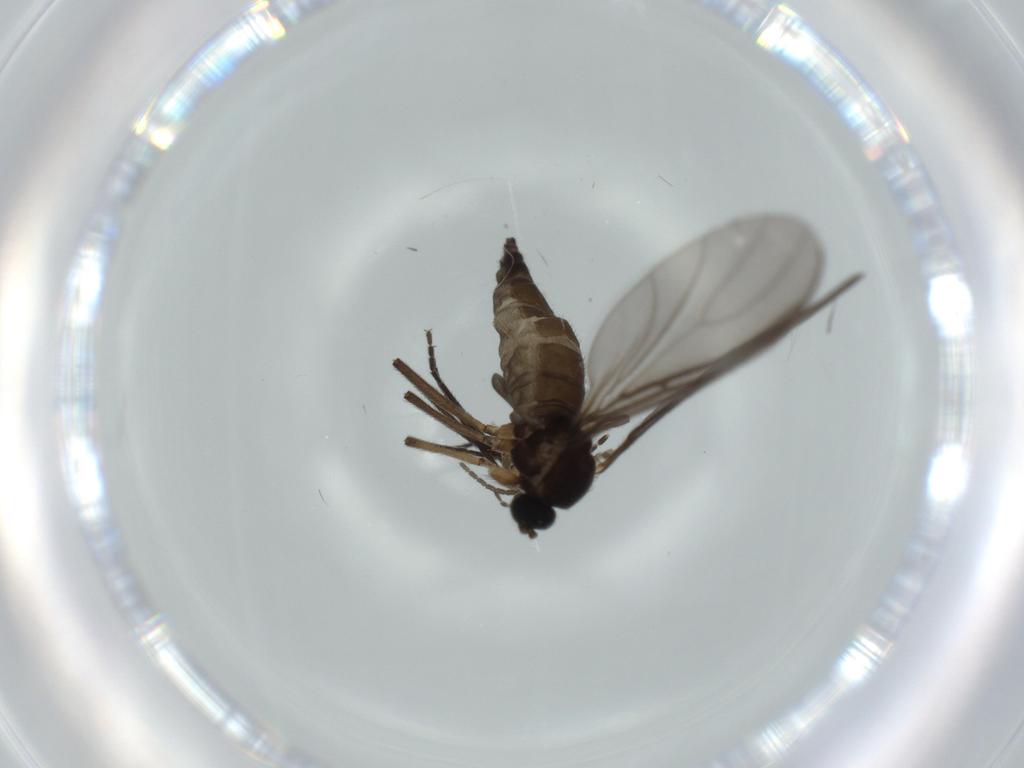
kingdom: Animalia
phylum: Arthropoda
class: Insecta
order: Diptera
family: Sciaridae
